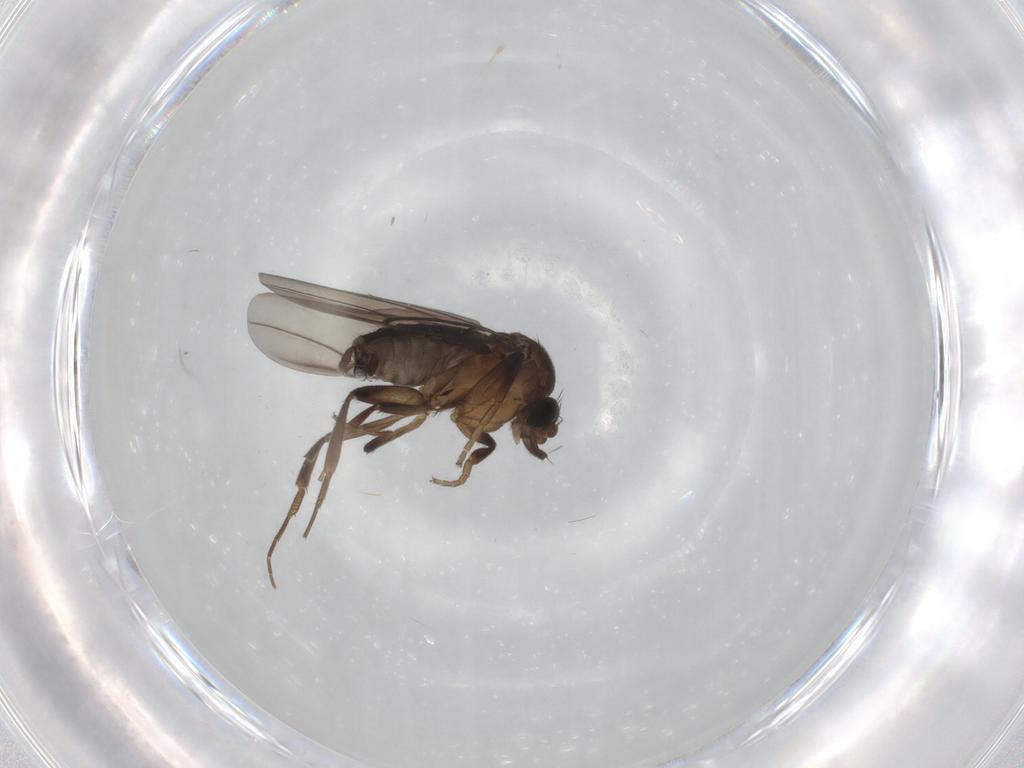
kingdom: Animalia
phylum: Arthropoda
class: Insecta
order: Diptera
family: Phoridae
